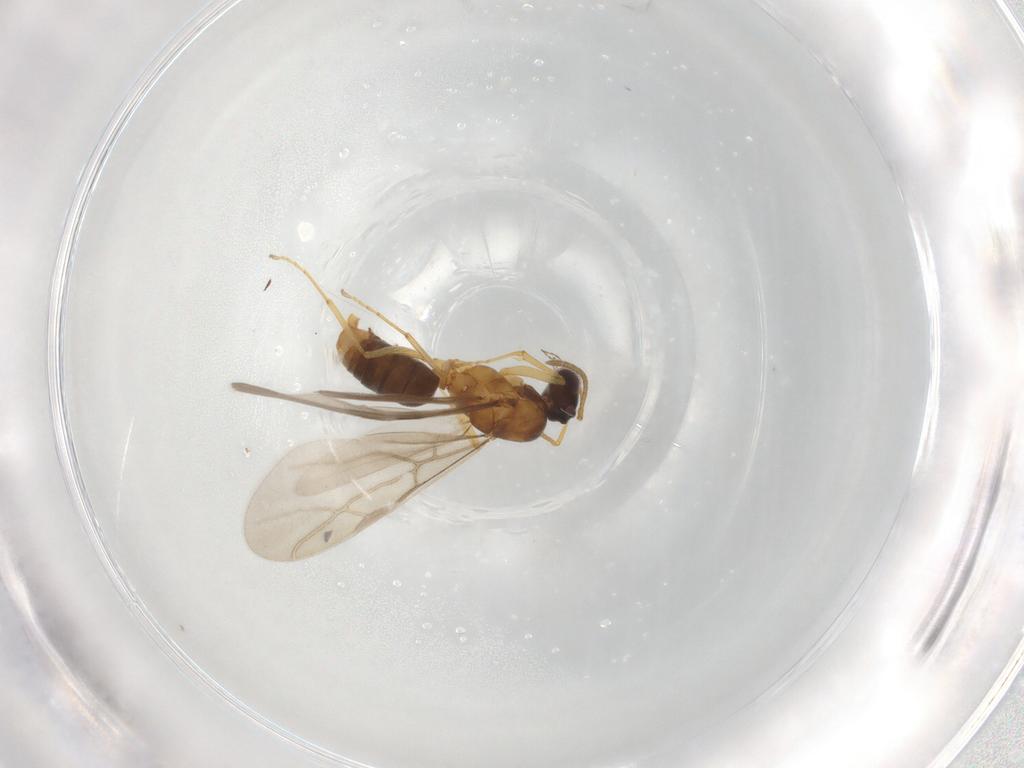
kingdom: Animalia
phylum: Arthropoda
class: Insecta
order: Hymenoptera
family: Formicidae
